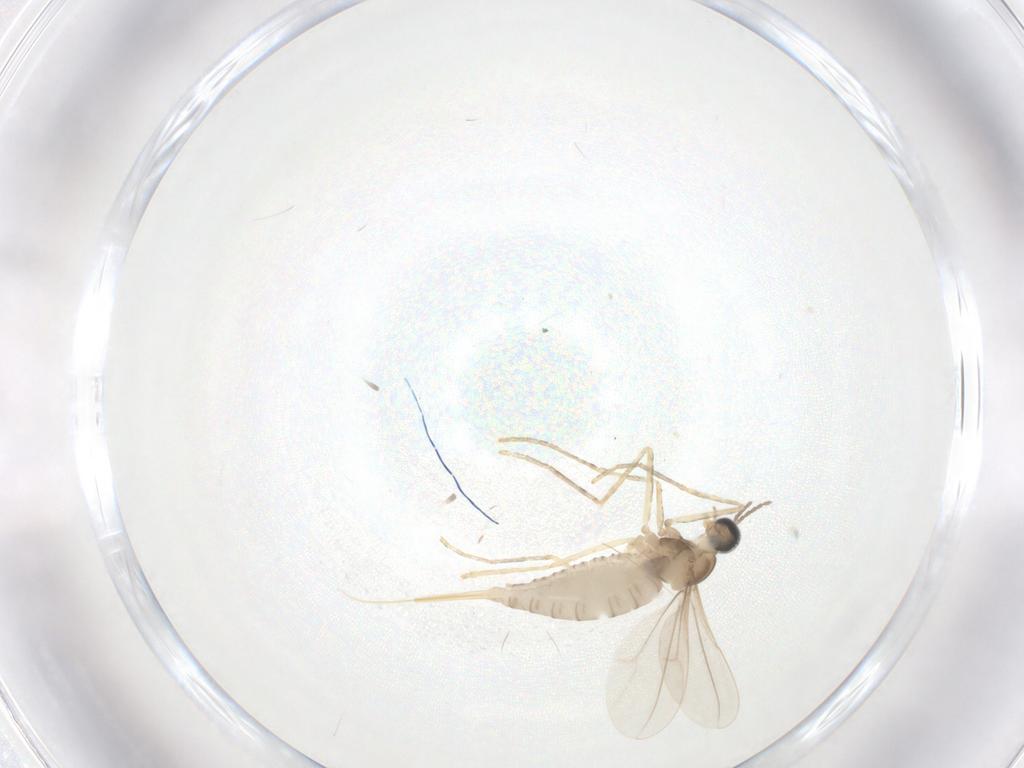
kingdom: Animalia
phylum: Arthropoda
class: Insecta
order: Diptera
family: Cecidomyiidae
